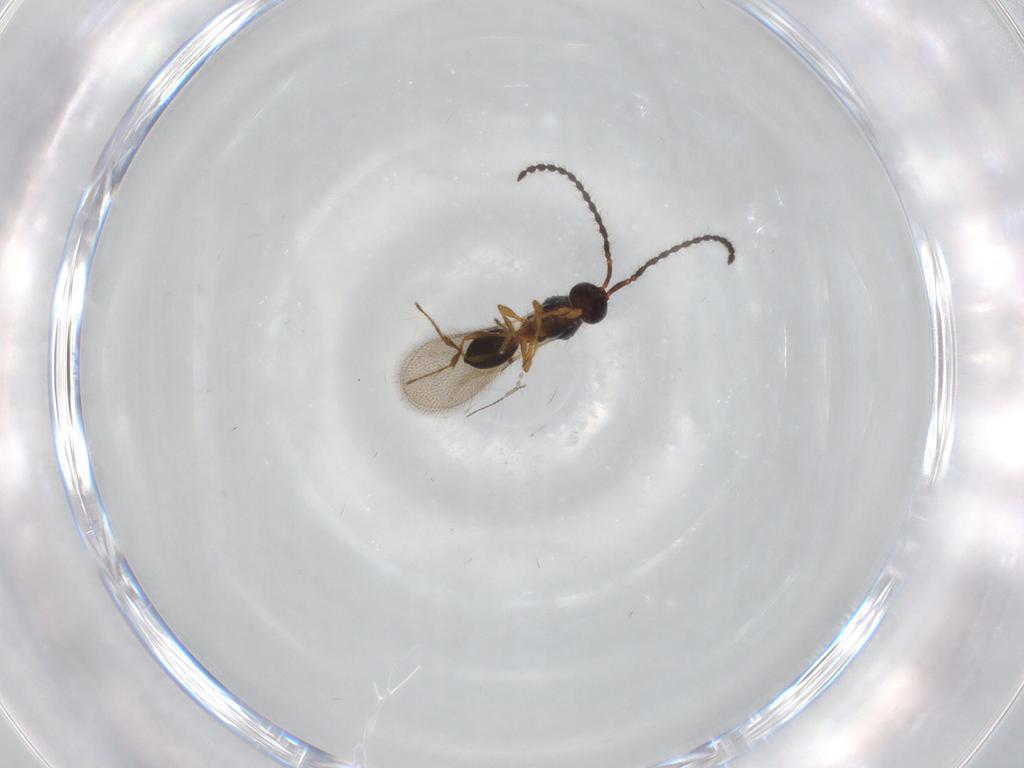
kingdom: Animalia
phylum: Arthropoda
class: Insecta
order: Hymenoptera
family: Diapriidae
